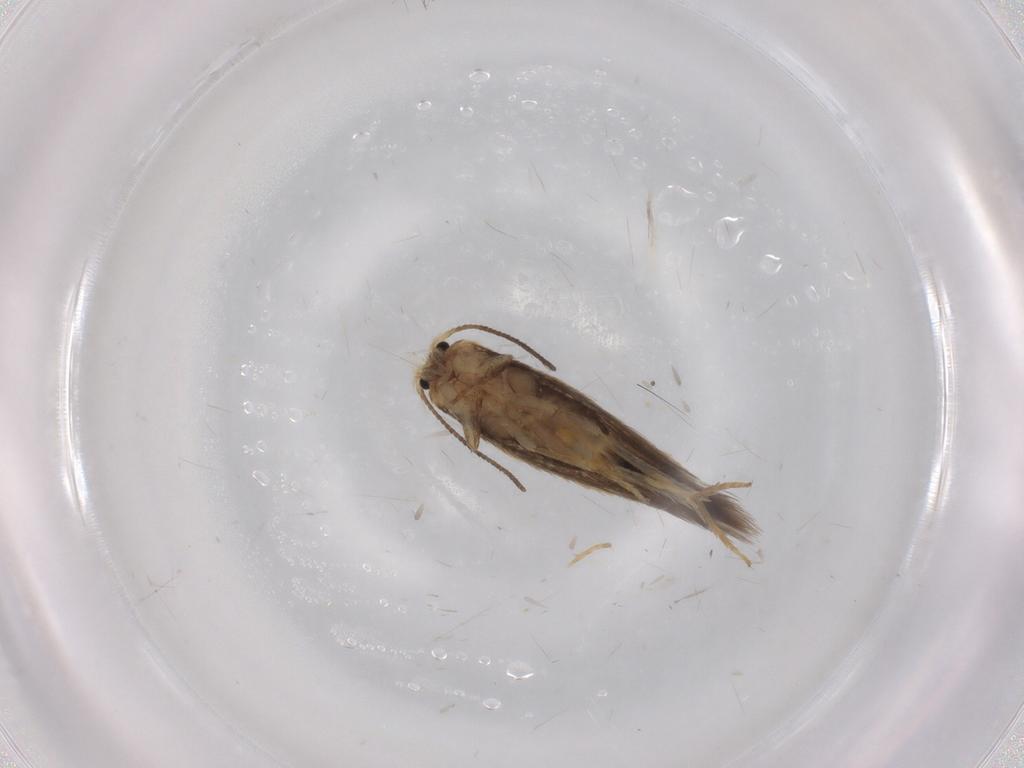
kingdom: Animalia
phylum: Arthropoda
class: Insecta
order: Lepidoptera
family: Nepticulidae
